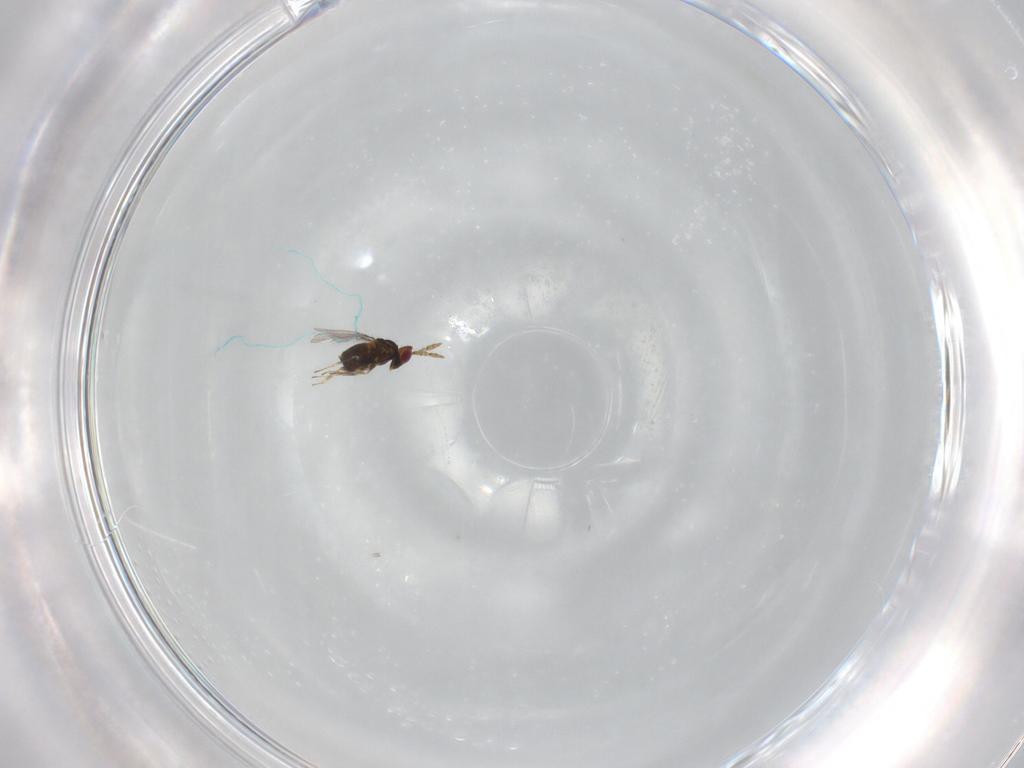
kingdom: Animalia
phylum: Arthropoda
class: Insecta
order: Hymenoptera
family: Trichogrammatidae
